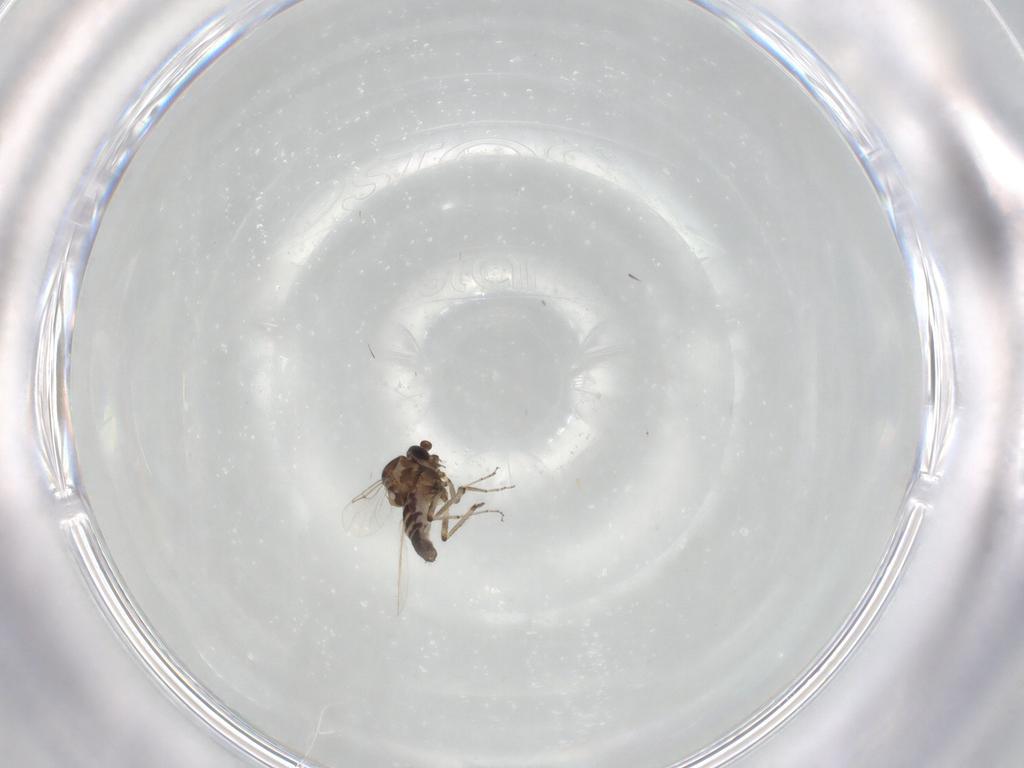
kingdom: Animalia
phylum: Arthropoda
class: Insecta
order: Diptera
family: Ceratopogonidae
